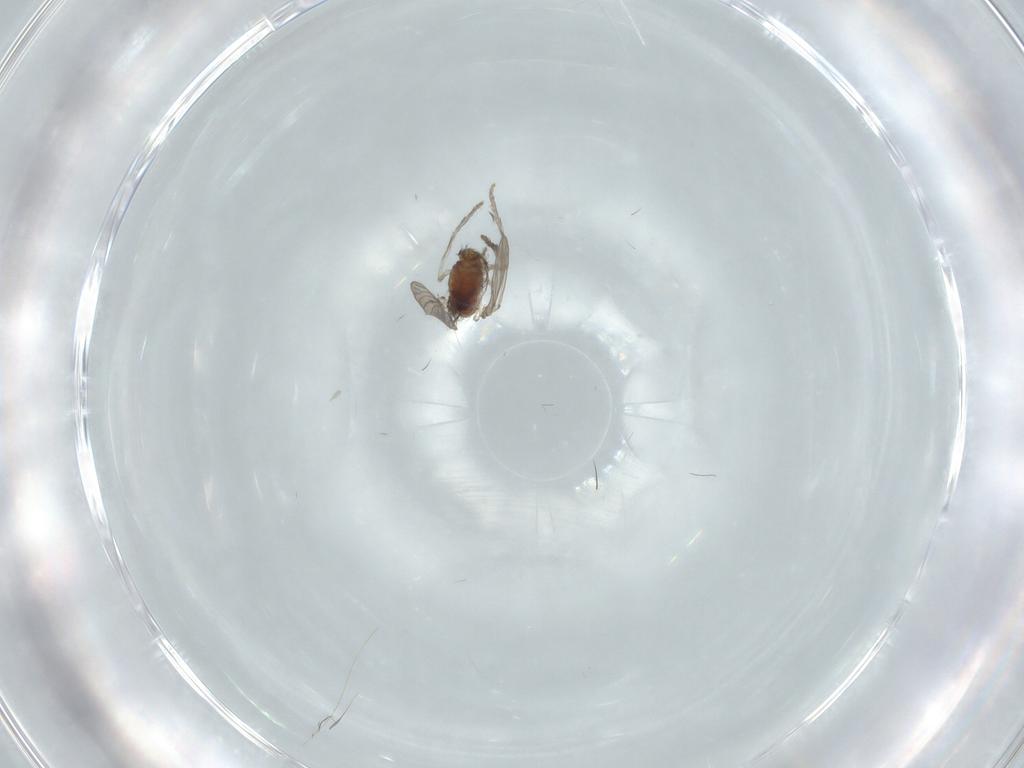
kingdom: Animalia
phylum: Arthropoda
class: Insecta
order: Diptera
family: Psychodidae
